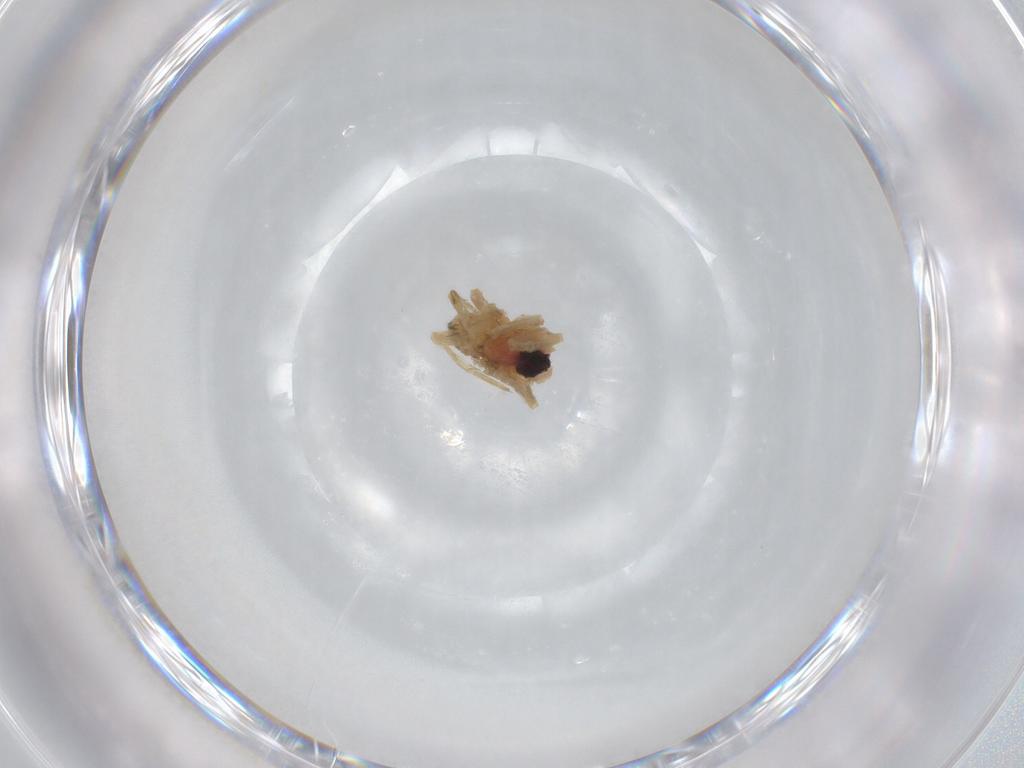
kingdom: Animalia
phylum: Arthropoda
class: Arachnida
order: Araneae
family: Lycosidae
